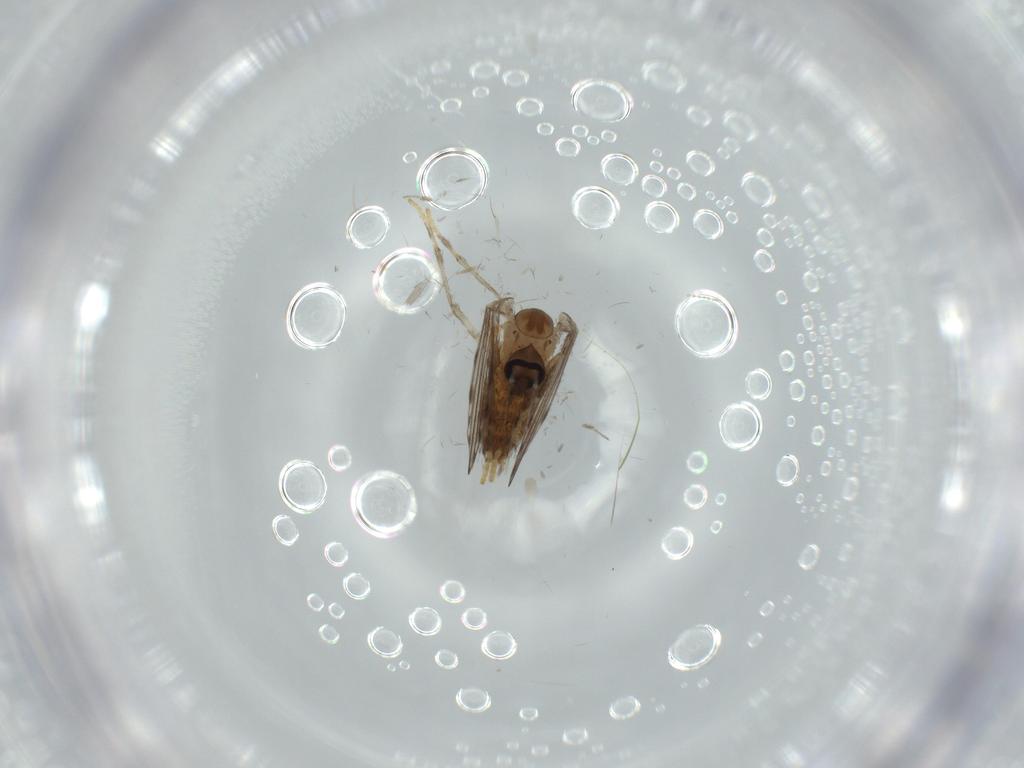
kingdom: Animalia
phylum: Arthropoda
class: Insecta
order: Diptera
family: Psychodidae
